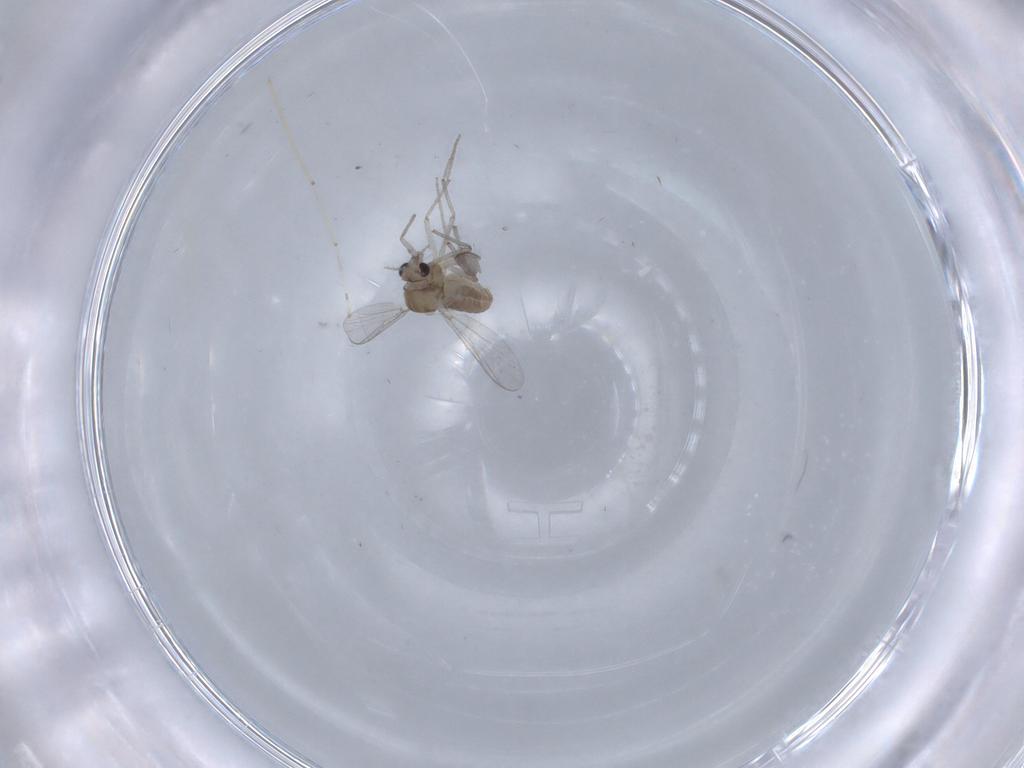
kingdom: Animalia
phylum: Arthropoda
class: Insecta
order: Diptera
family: Chironomidae
